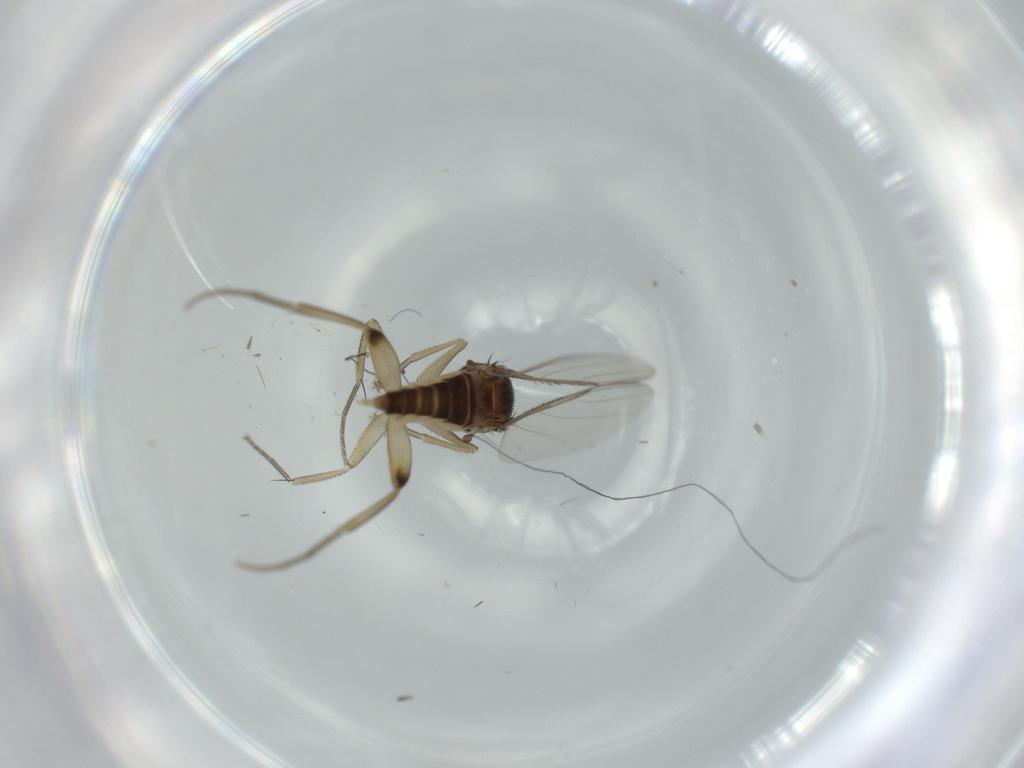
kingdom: Animalia
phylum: Arthropoda
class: Insecta
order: Diptera
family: Phoridae
